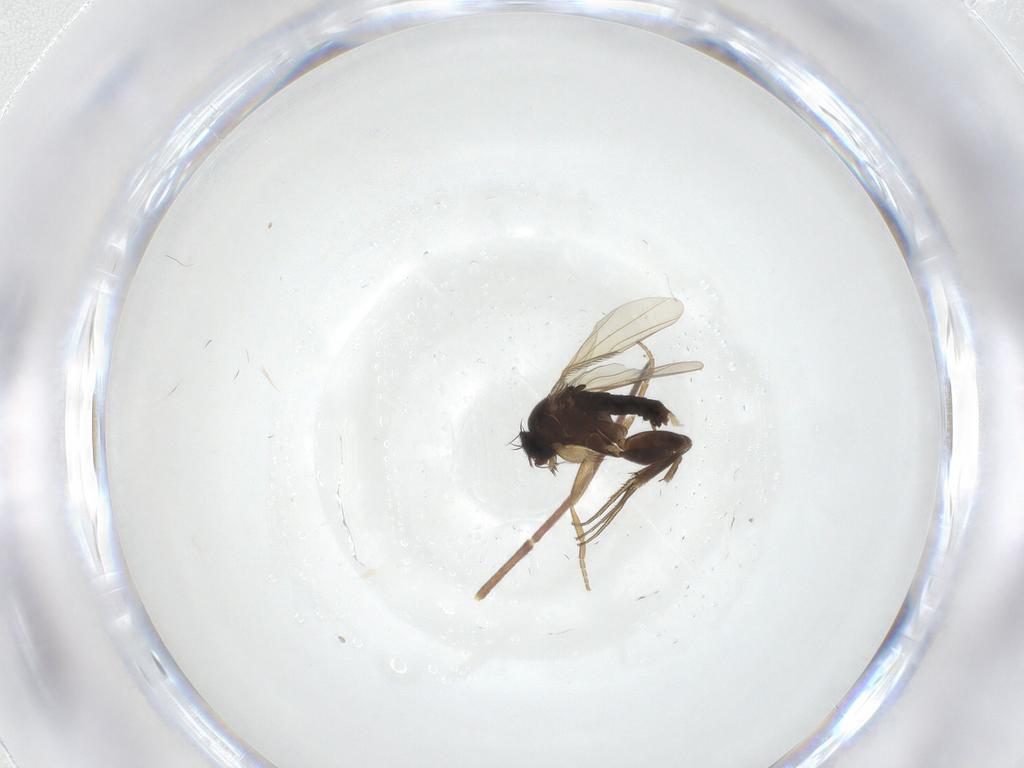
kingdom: Animalia
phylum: Arthropoda
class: Insecta
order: Diptera
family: Phoridae
